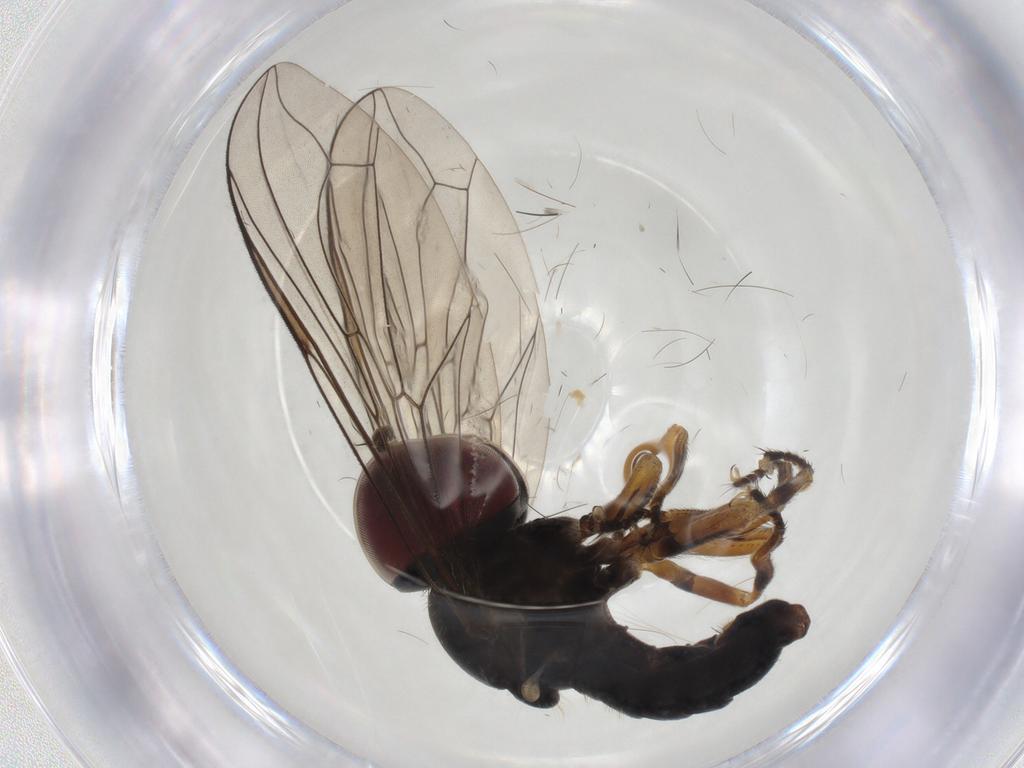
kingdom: Animalia
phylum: Arthropoda
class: Insecta
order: Diptera
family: Pipunculidae
